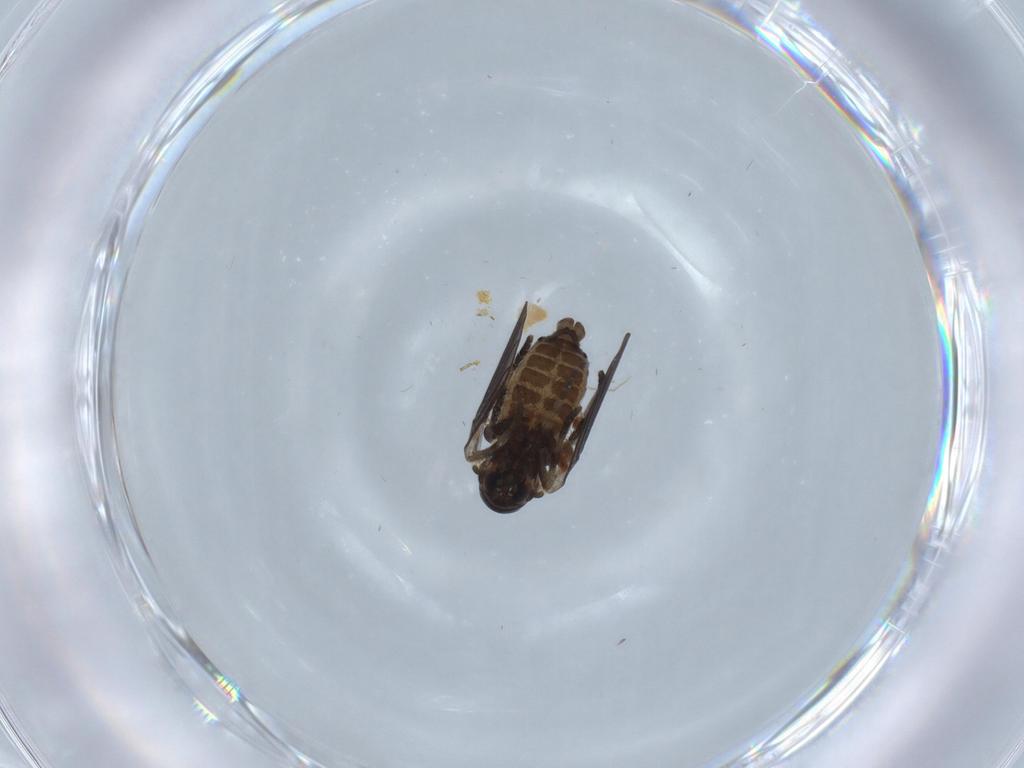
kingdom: Animalia
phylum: Arthropoda
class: Insecta
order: Diptera
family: Psychodidae
